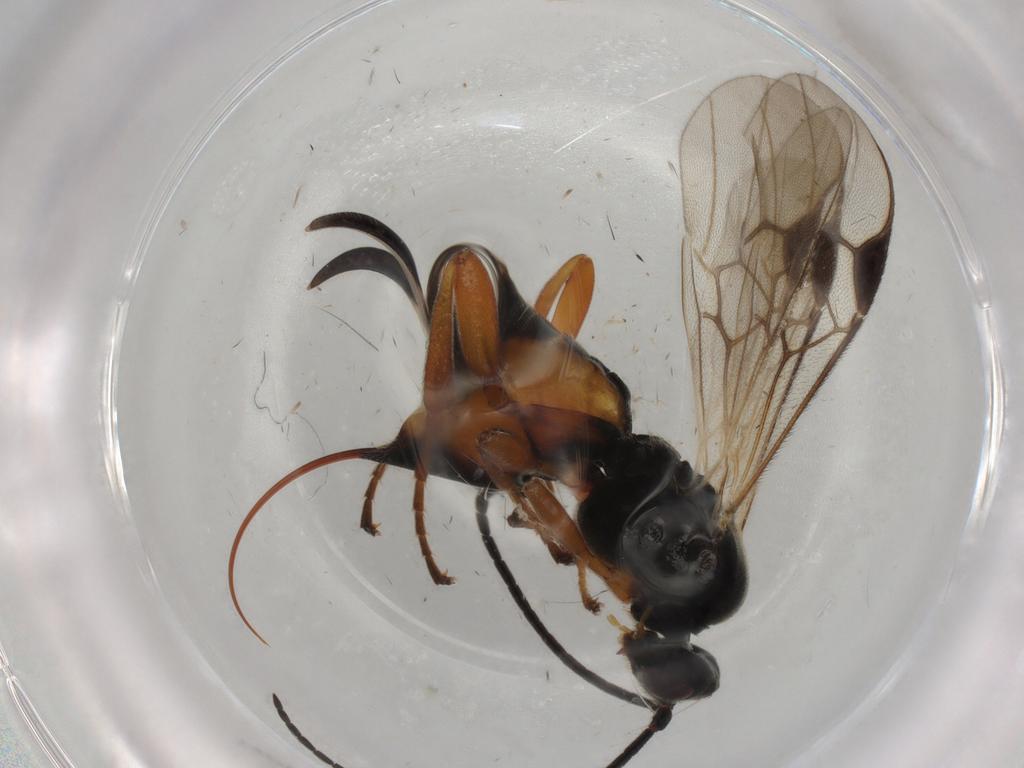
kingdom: Animalia
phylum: Arthropoda
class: Insecta
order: Lepidoptera
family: Tortricidae
